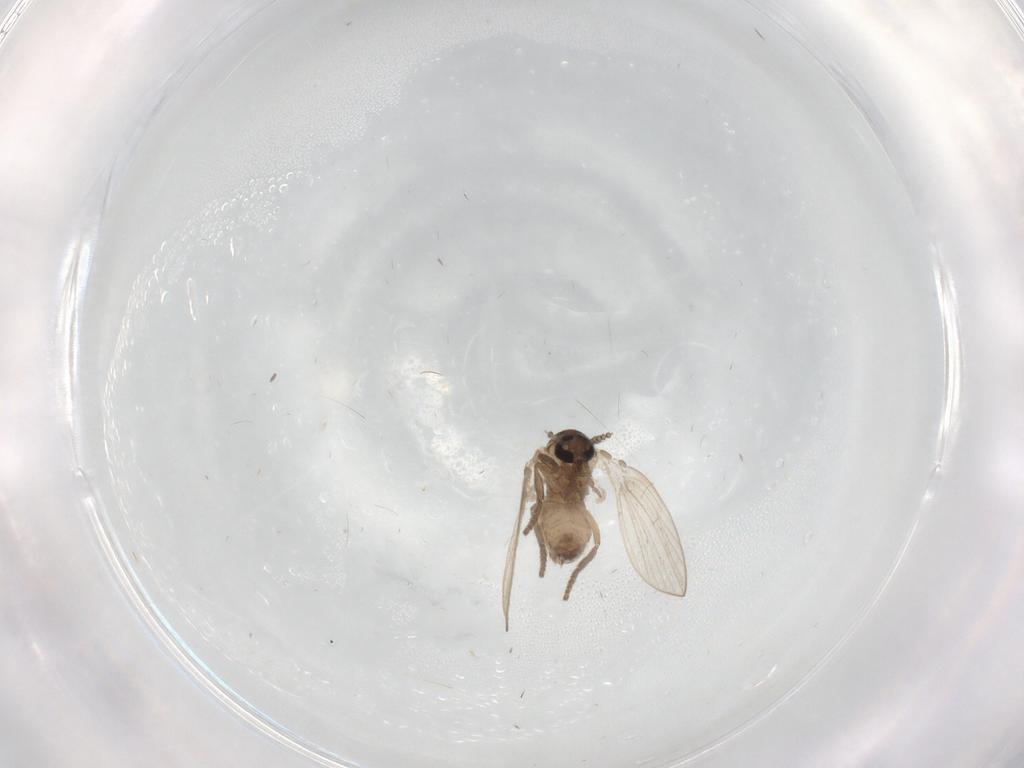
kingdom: Animalia
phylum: Arthropoda
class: Insecta
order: Diptera
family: Psychodidae
